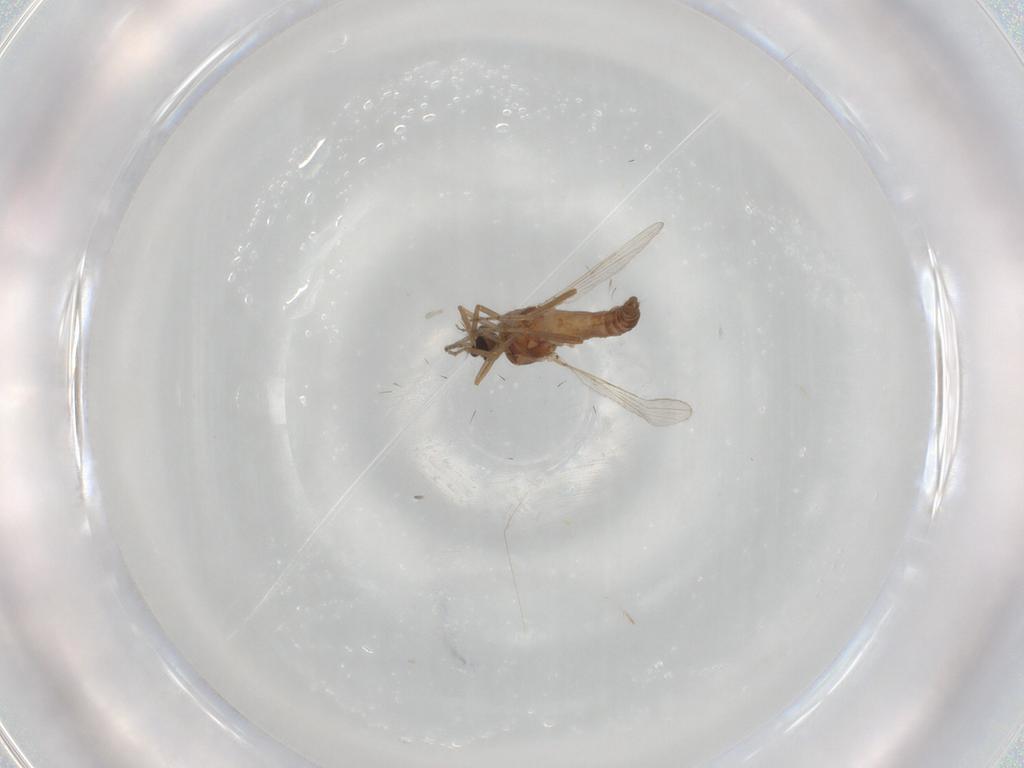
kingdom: Animalia
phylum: Arthropoda
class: Insecta
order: Diptera
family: Ceratopogonidae
